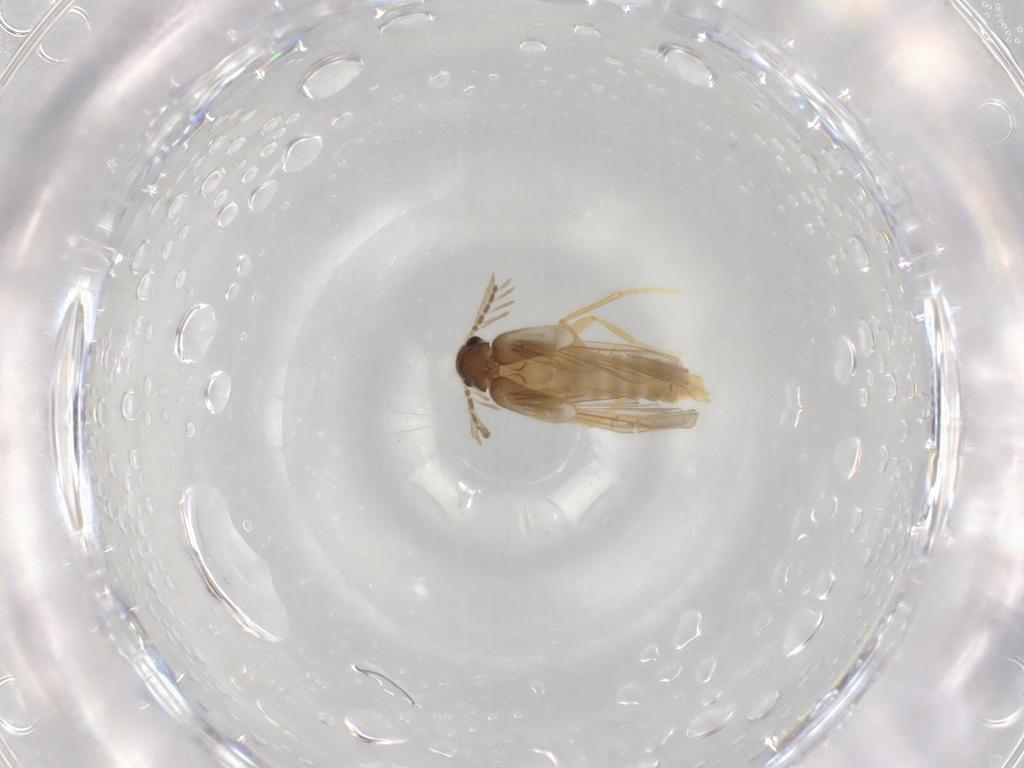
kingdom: Animalia
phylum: Arthropoda
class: Insecta
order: Coleoptera
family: Phengodidae
